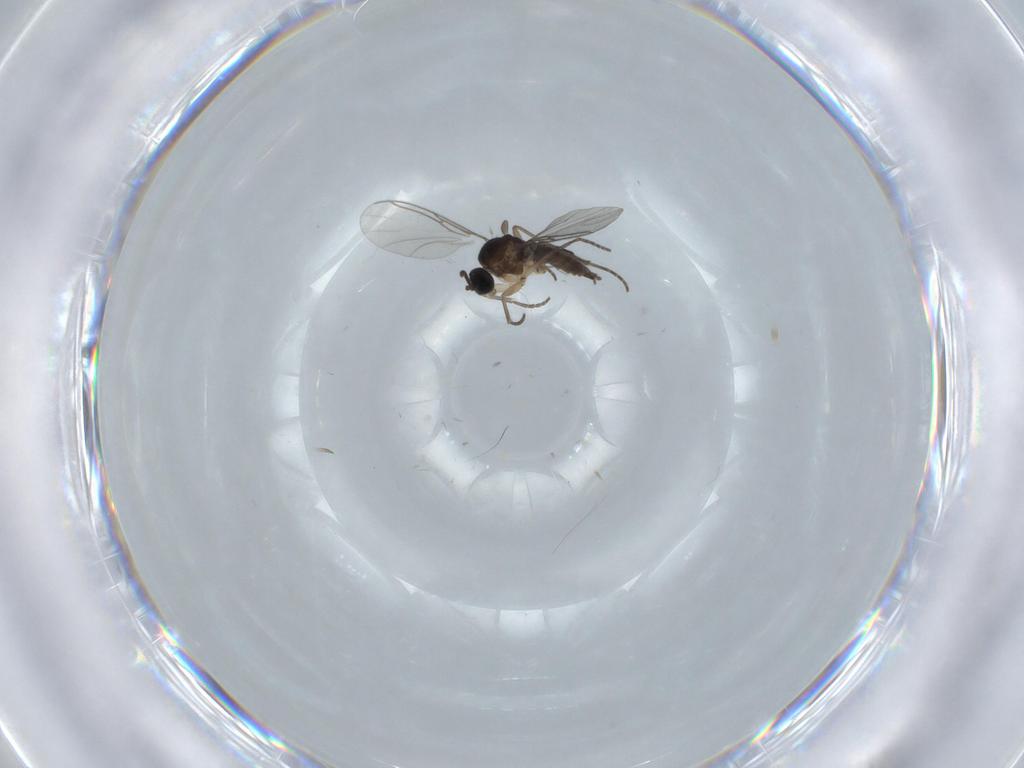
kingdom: Animalia
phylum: Arthropoda
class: Insecta
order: Diptera
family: Sciaridae
